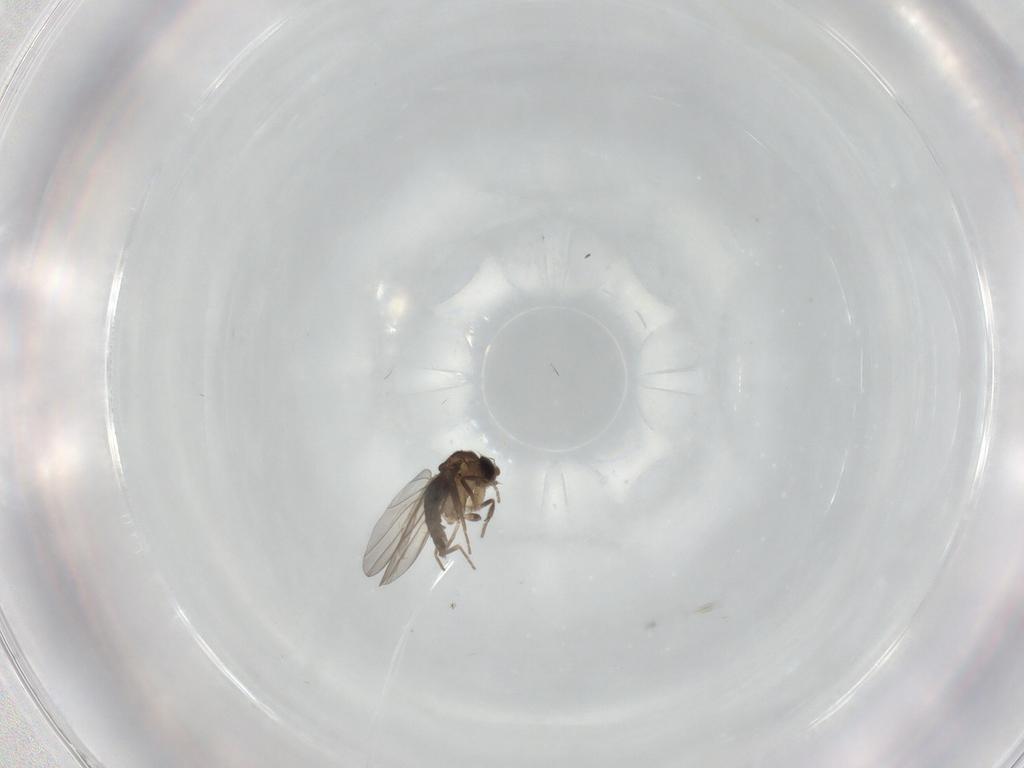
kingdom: Animalia
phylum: Arthropoda
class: Insecta
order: Diptera
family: Phoridae
